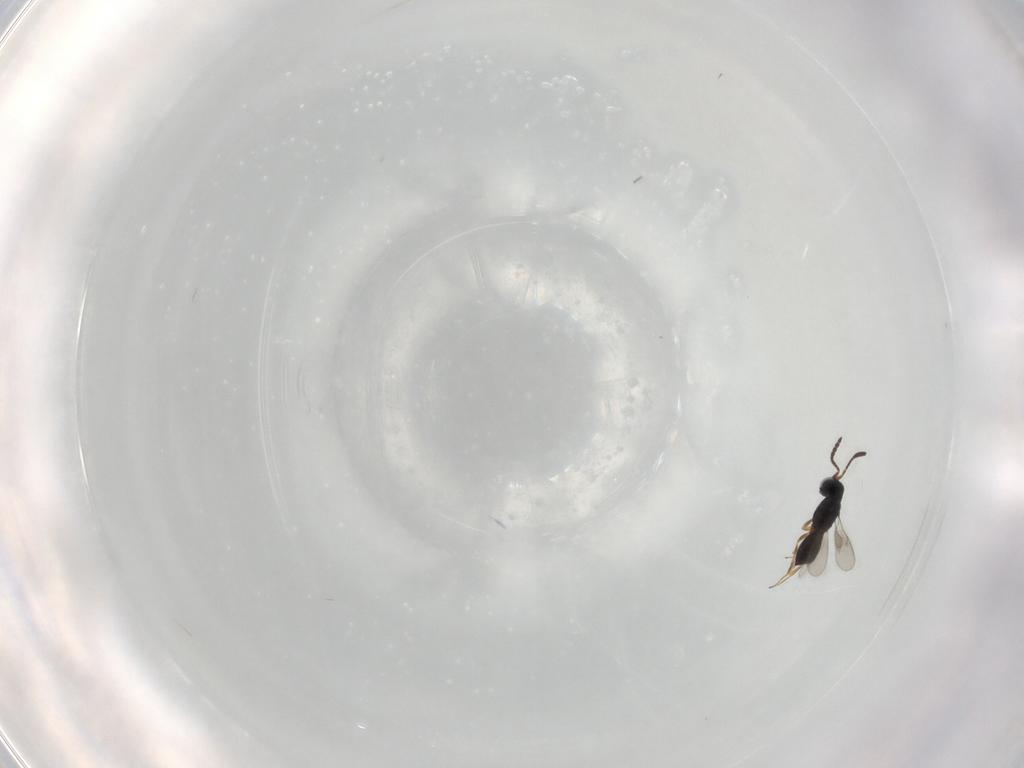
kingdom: Animalia
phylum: Arthropoda
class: Insecta
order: Hymenoptera
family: Scelionidae
